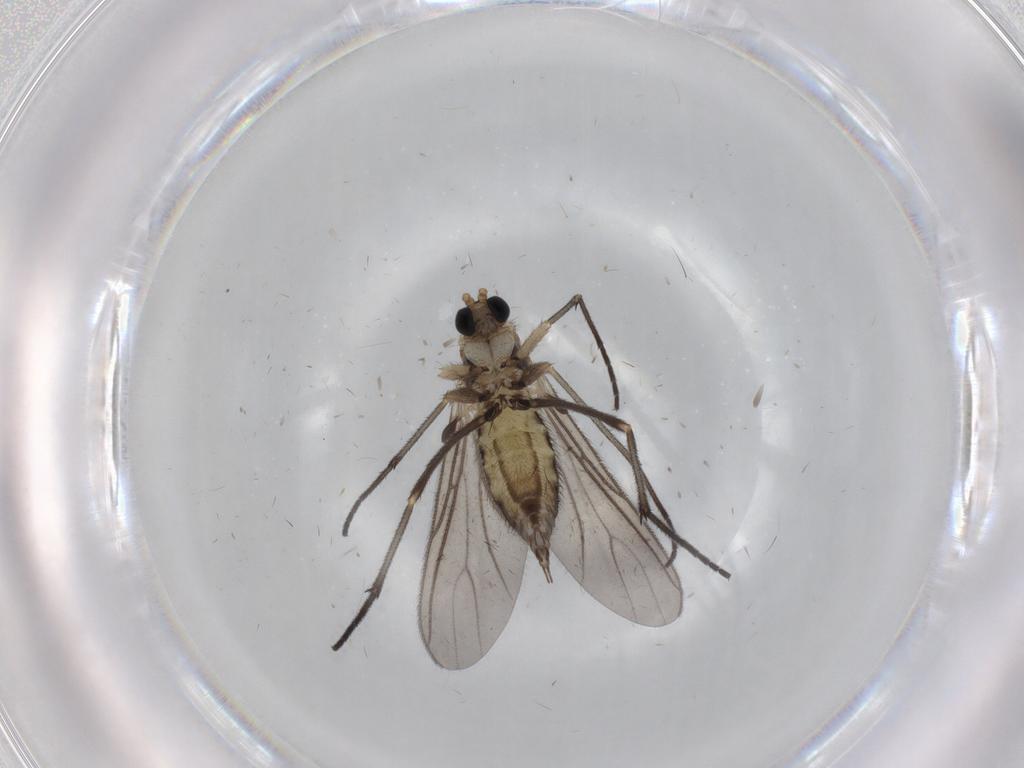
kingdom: Animalia
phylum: Arthropoda
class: Insecta
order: Diptera
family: Sciaridae
